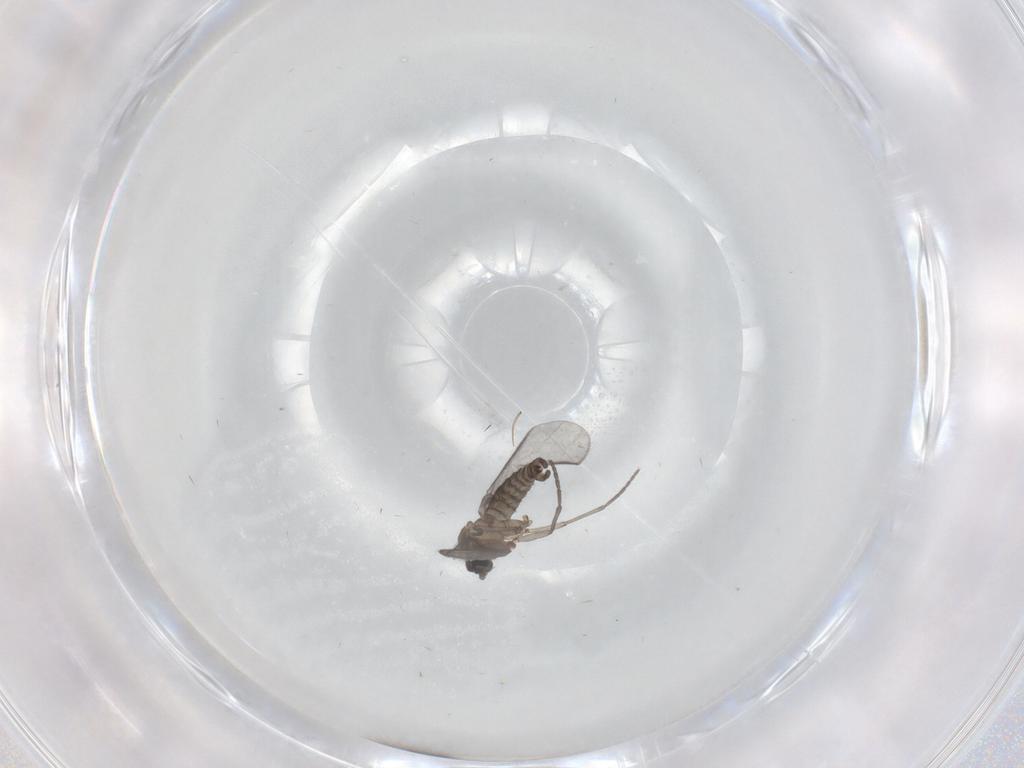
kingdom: Animalia
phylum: Arthropoda
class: Insecta
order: Diptera
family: Sciaridae
